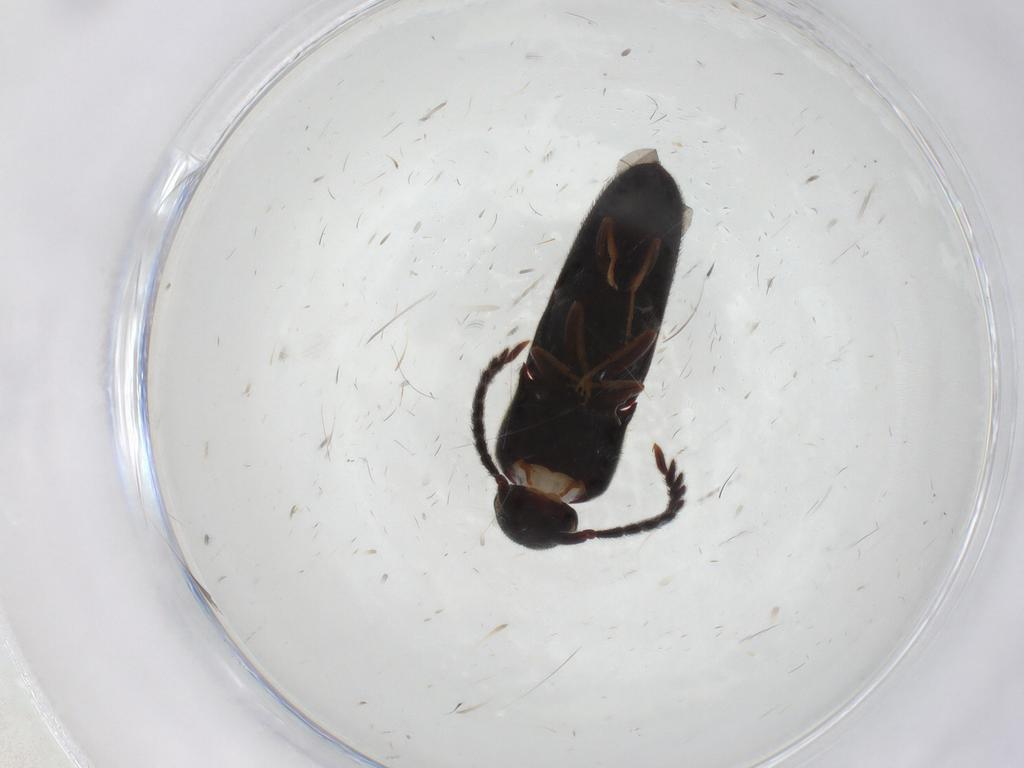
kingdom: Animalia
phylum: Arthropoda
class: Insecta
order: Coleoptera
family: Eucnemidae
